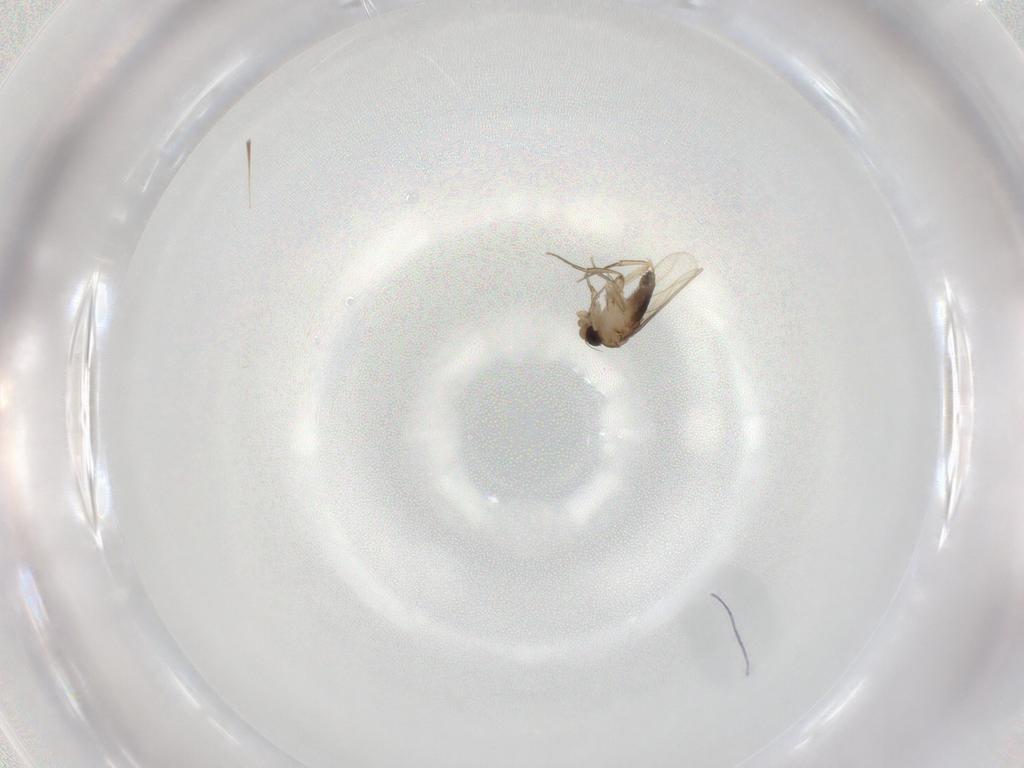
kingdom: Animalia
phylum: Arthropoda
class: Insecta
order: Diptera
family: Phoridae
